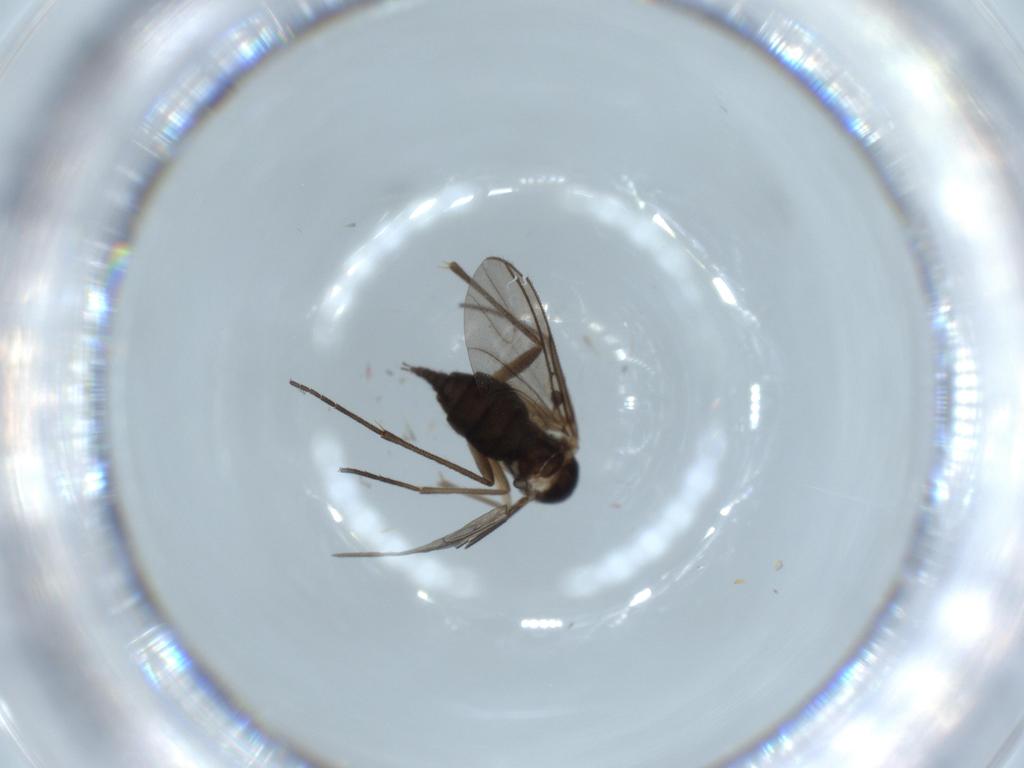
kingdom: Animalia
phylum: Arthropoda
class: Insecta
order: Diptera
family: Sciaridae
